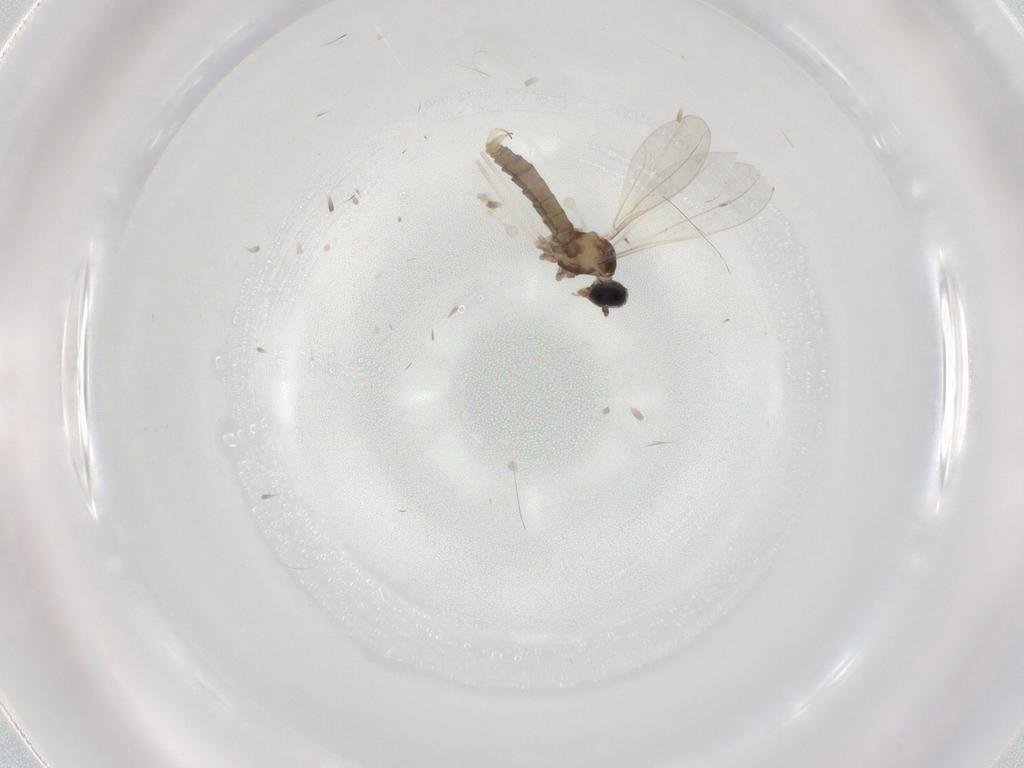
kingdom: Animalia
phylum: Arthropoda
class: Insecta
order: Diptera
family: Cecidomyiidae
